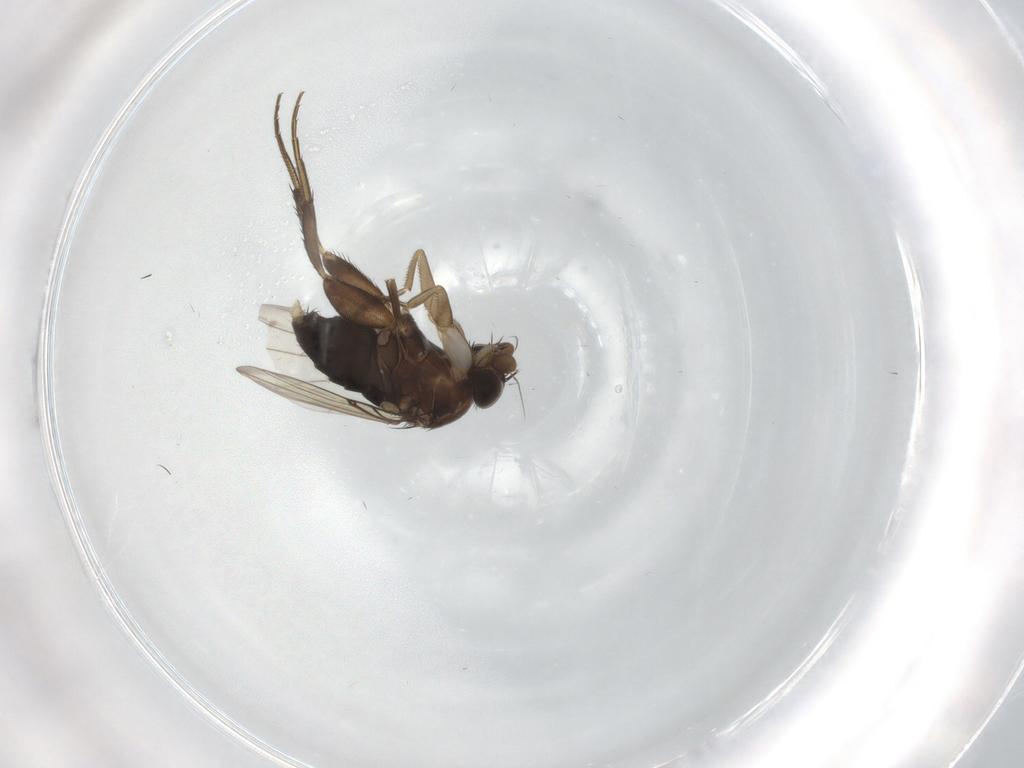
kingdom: Animalia
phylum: Arthropoda
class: Insecta
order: Diptera
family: Phoridae
